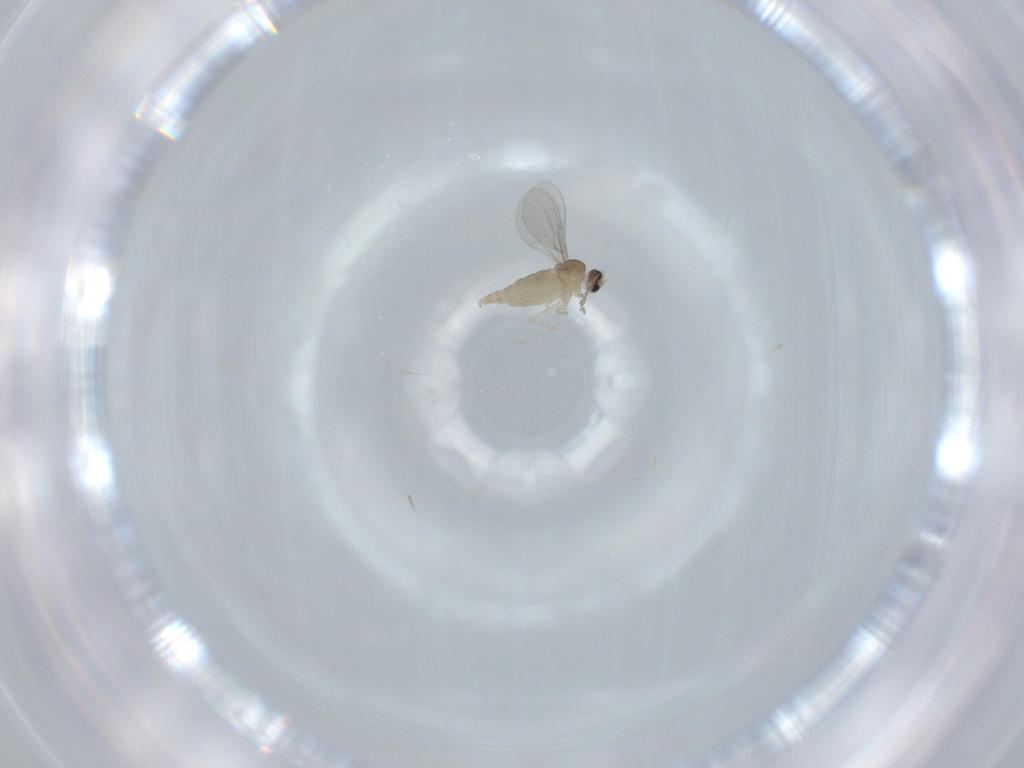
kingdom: Animalia
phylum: Arthropoda
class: Insecta
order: Diptera
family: Cecidomyiidae
